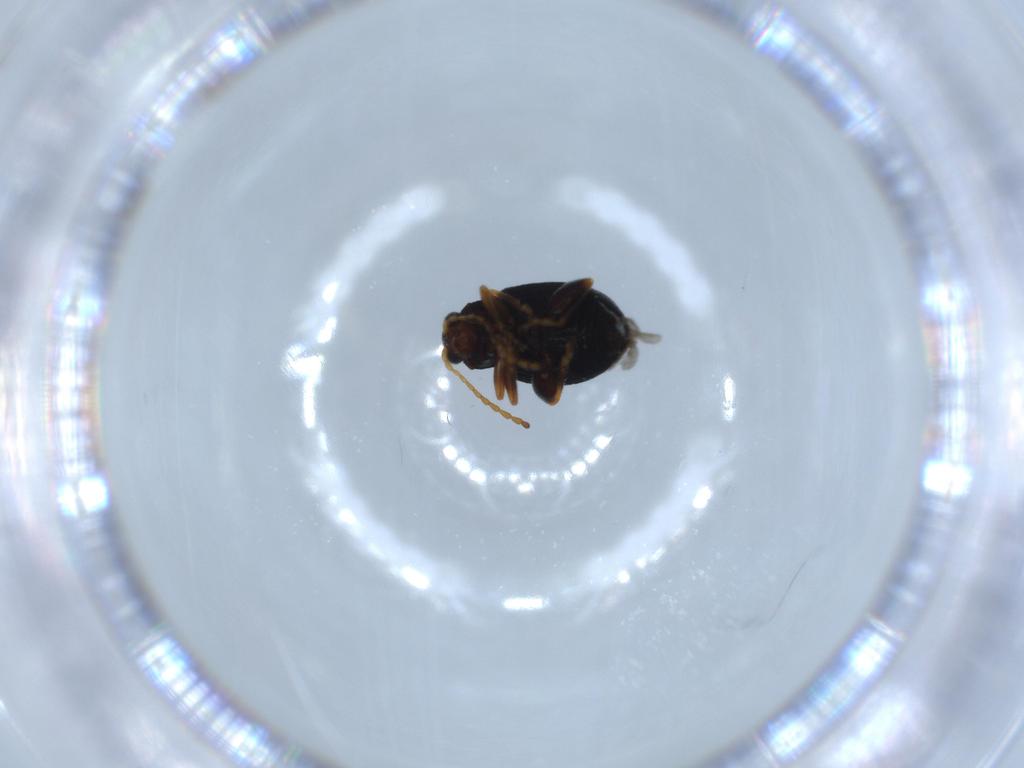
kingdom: Animalia
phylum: Arthropoda
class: Insecta
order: Coleoptera
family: Chrysomelidae
